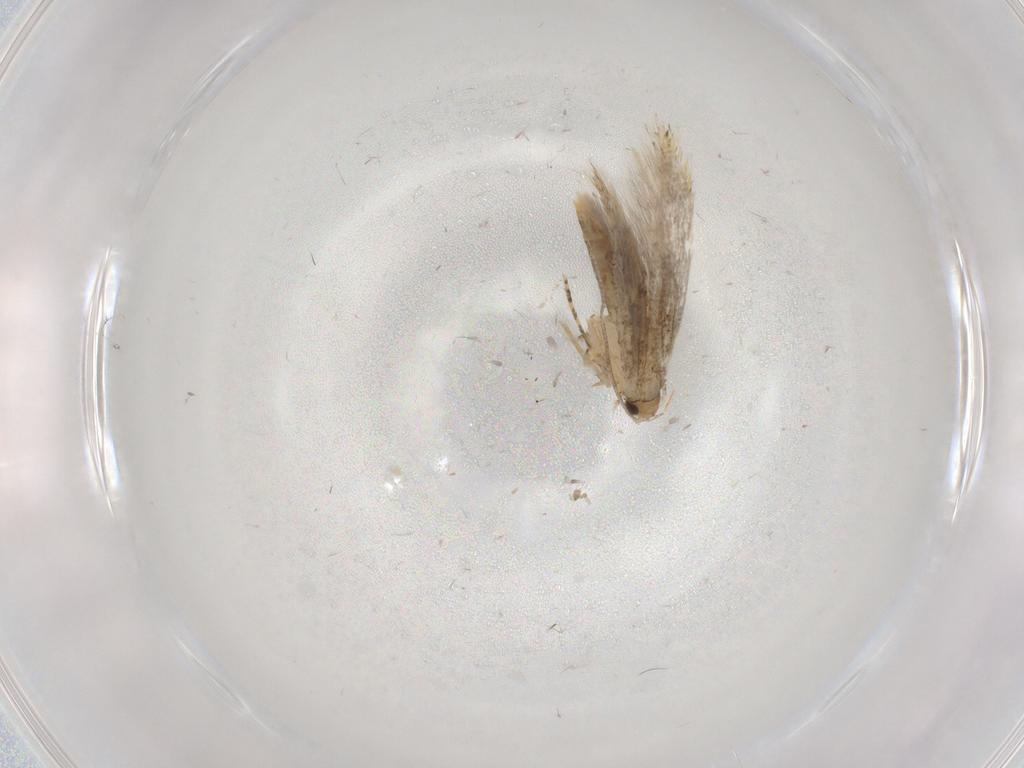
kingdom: Animalia
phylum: Arthropoda
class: Insecta
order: Lepidoptera
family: Tineidae
